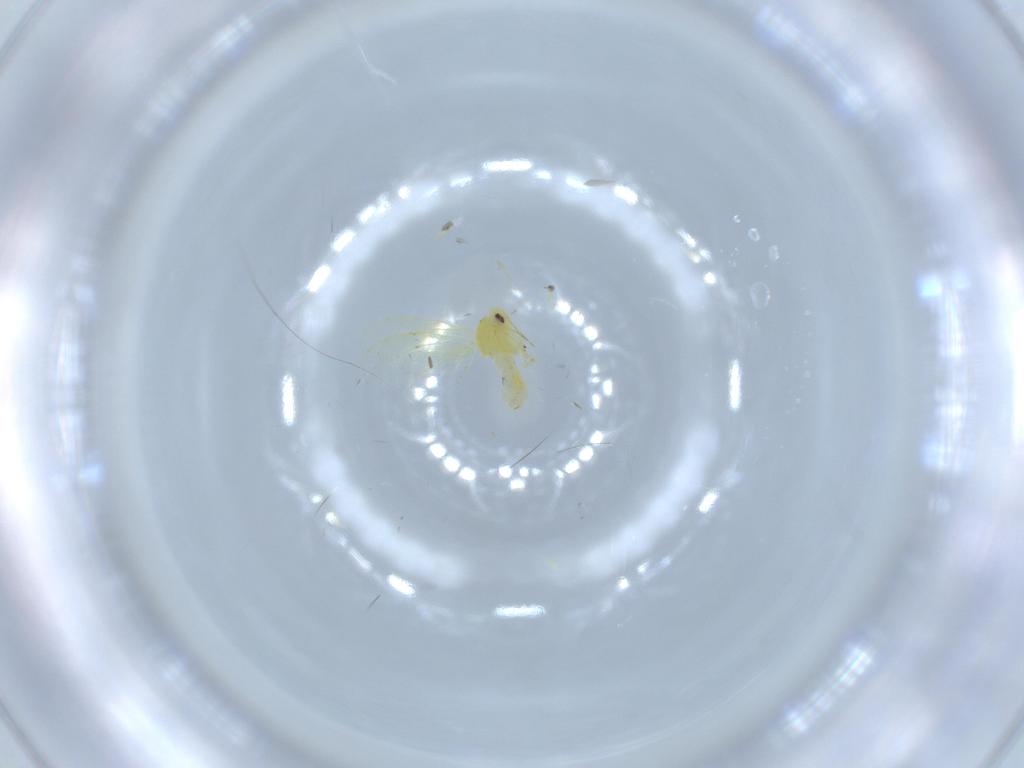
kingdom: Animalia
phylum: Arthropoda
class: Insecta
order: Hemiptera
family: Aleyrodidae
